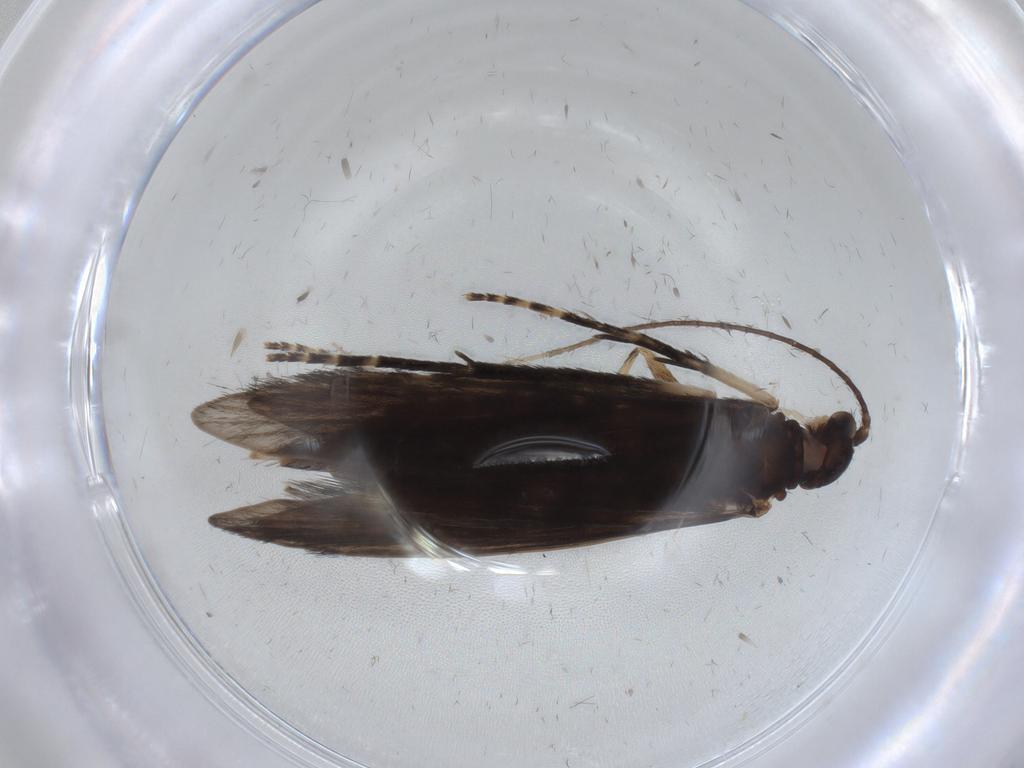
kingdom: Animalia
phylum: Arthropoda
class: Insecta
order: Trichoptera
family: Xiphocentronidae
